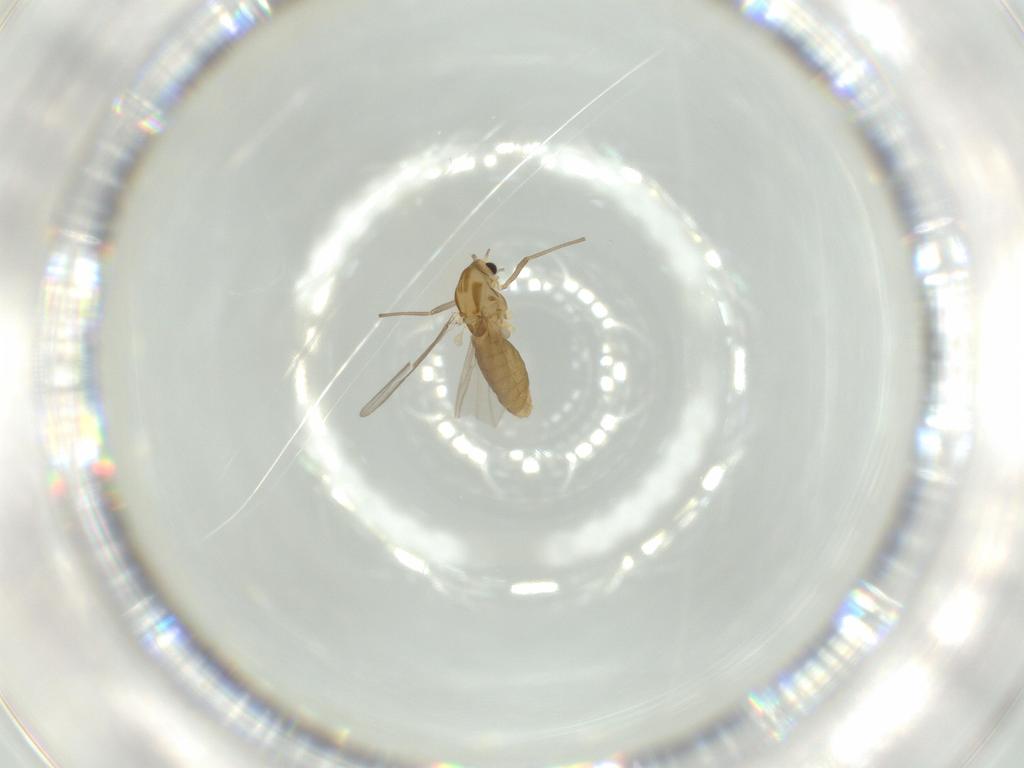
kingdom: Animalia
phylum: Arthropoda
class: Insecta
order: Diptera
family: Chironomidae
